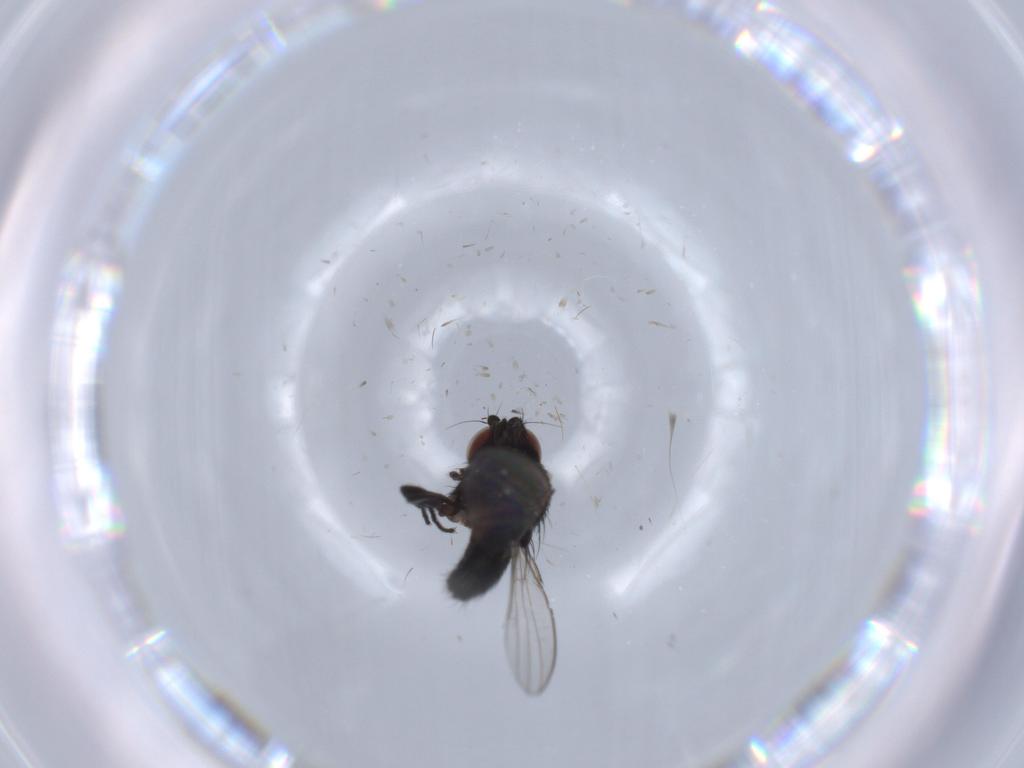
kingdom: Animalia
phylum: Arthropoda
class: Insecta
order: Diptera
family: Milichiidae
